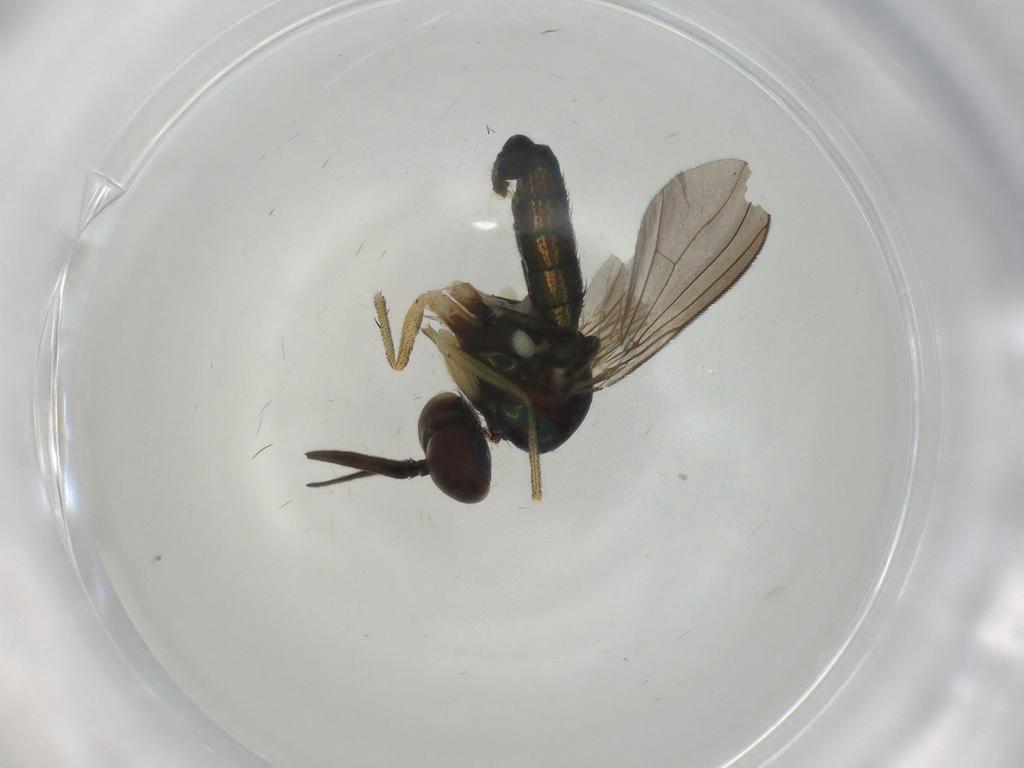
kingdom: Animalia
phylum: Arthropoda
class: Insecta
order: Diptera
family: Dolichopodidae
